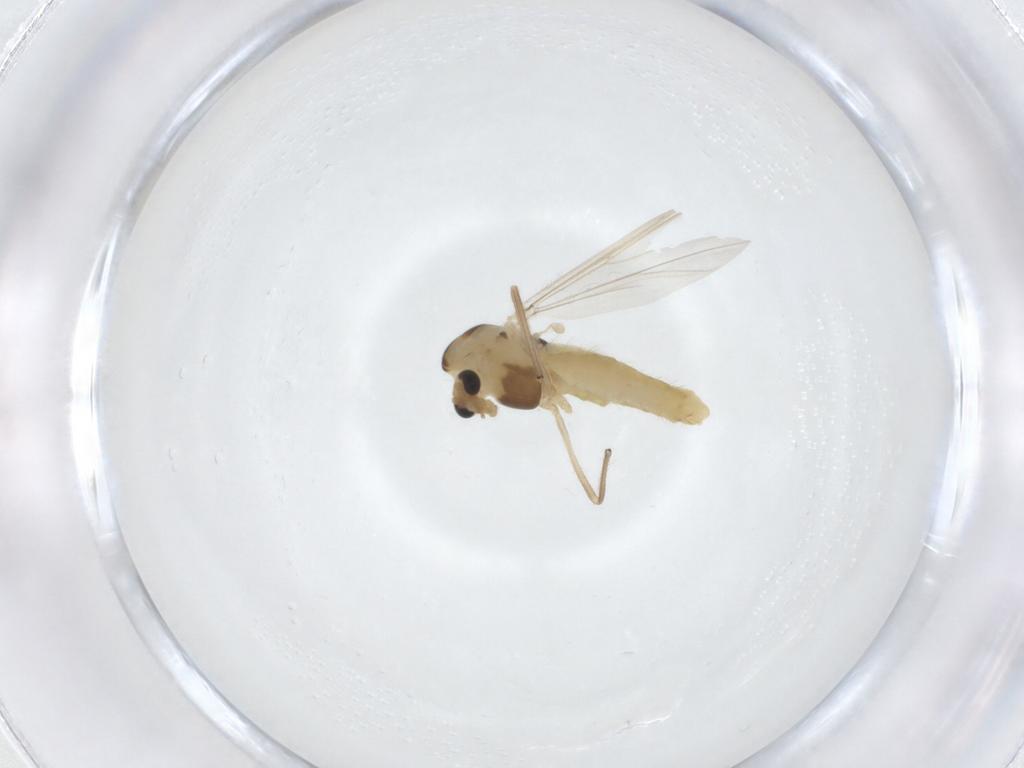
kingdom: Animalia
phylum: Arthropoda
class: Insecta
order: Diptera
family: Chironomidae
